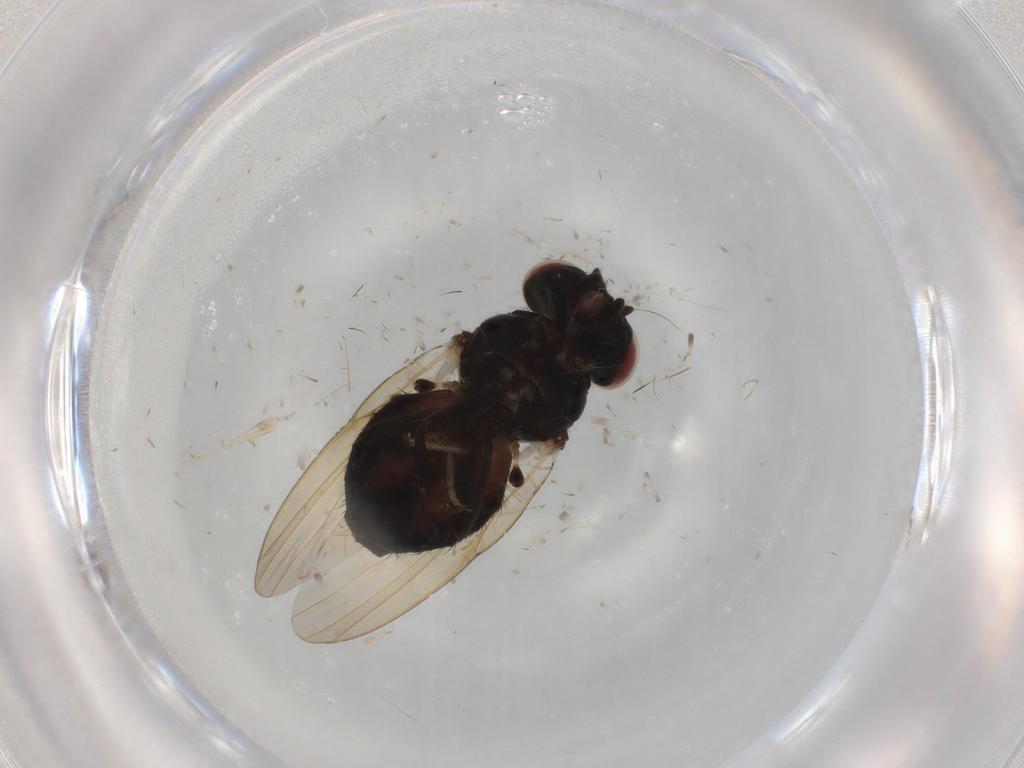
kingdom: Animalia
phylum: Arthropoda
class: Insecta
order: Diptera
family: Lonchaeidae
